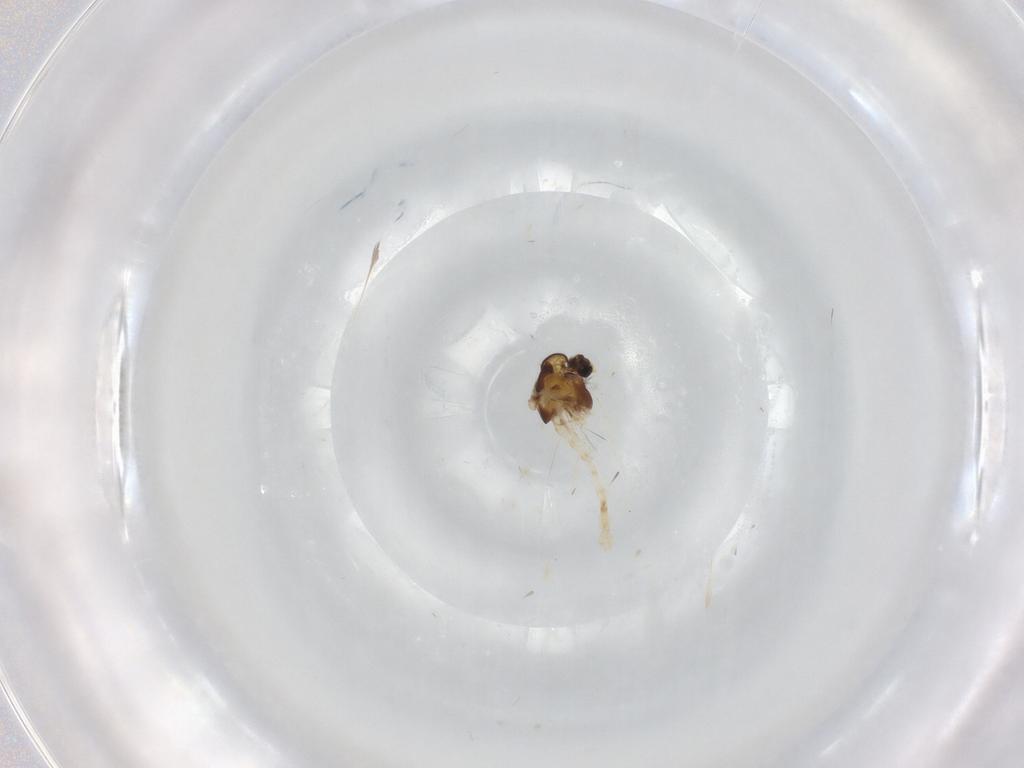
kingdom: Animalia
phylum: Arthropoda
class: Insecta
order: Diptera
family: Chironomidae
